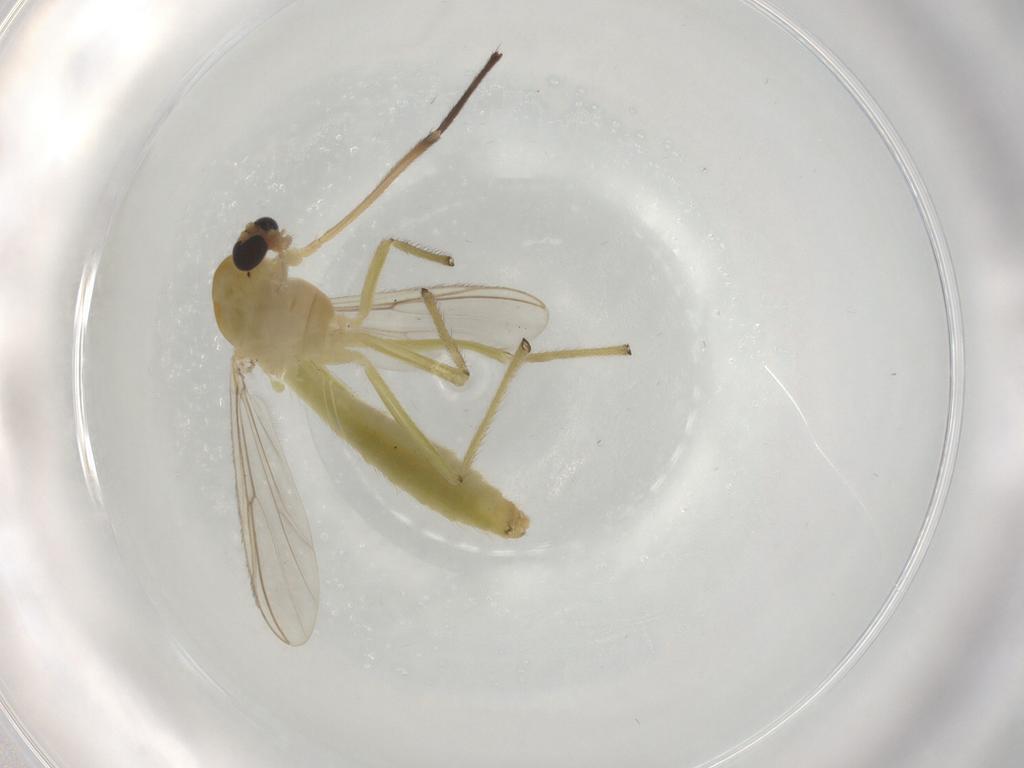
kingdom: Animalia
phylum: Arthropoda
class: Insecta
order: Diptera
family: Chironomidae
